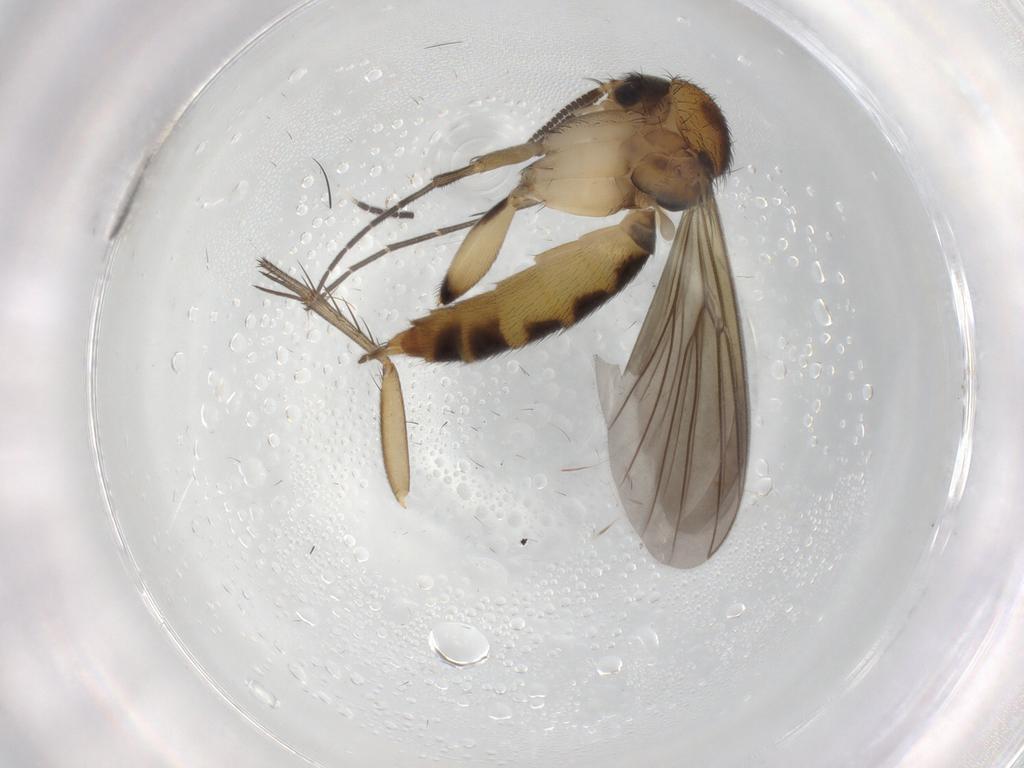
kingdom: Animalia
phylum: Arthropoda
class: Insecta
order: Diptera
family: Mycetophilidae
